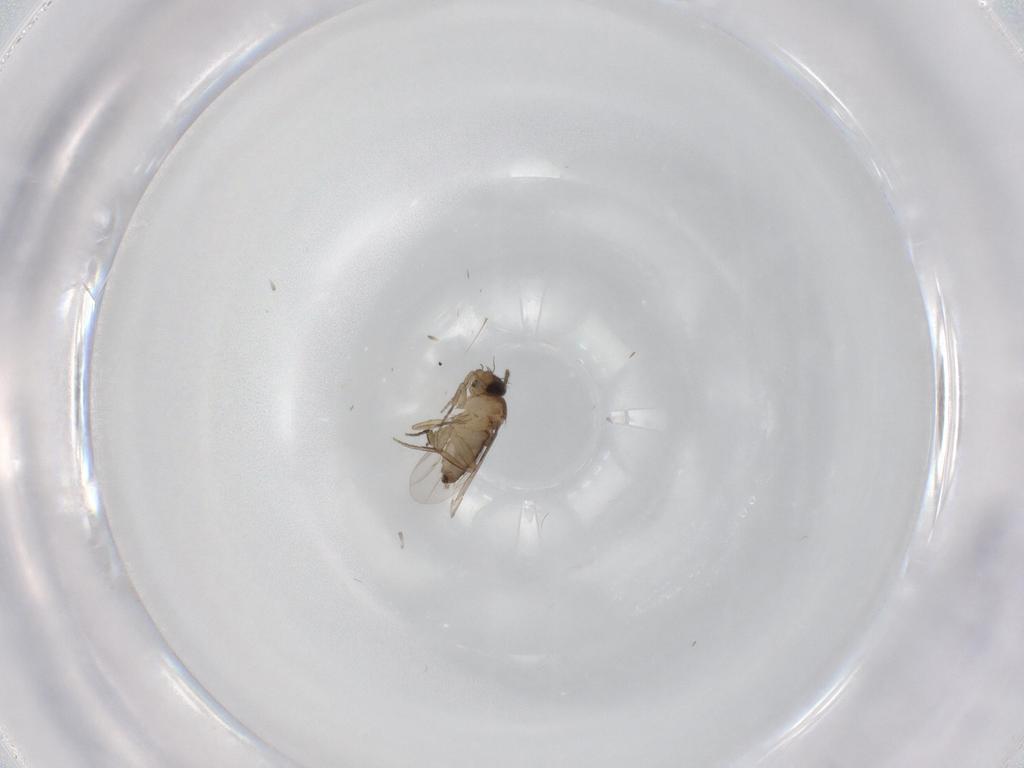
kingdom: Animalia
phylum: Arthropoda
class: Insecta
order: Diptera
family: Phoridae
